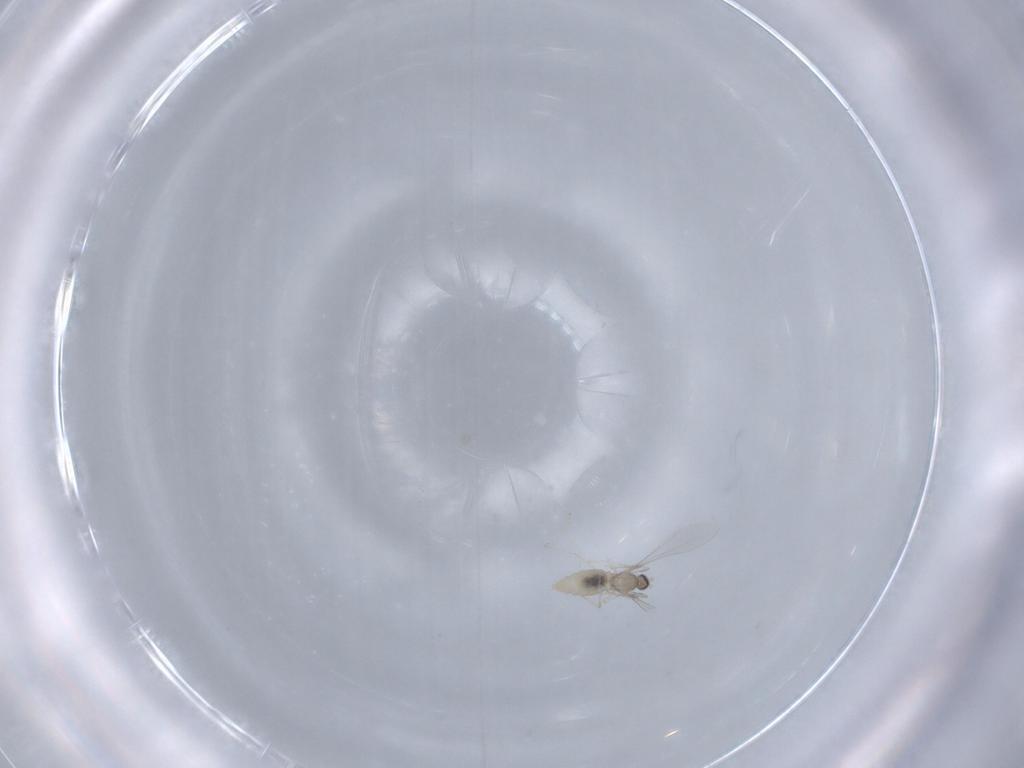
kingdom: Animalia
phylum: Arthropoda
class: Insecta
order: Diptera
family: Cecidomyiidae
